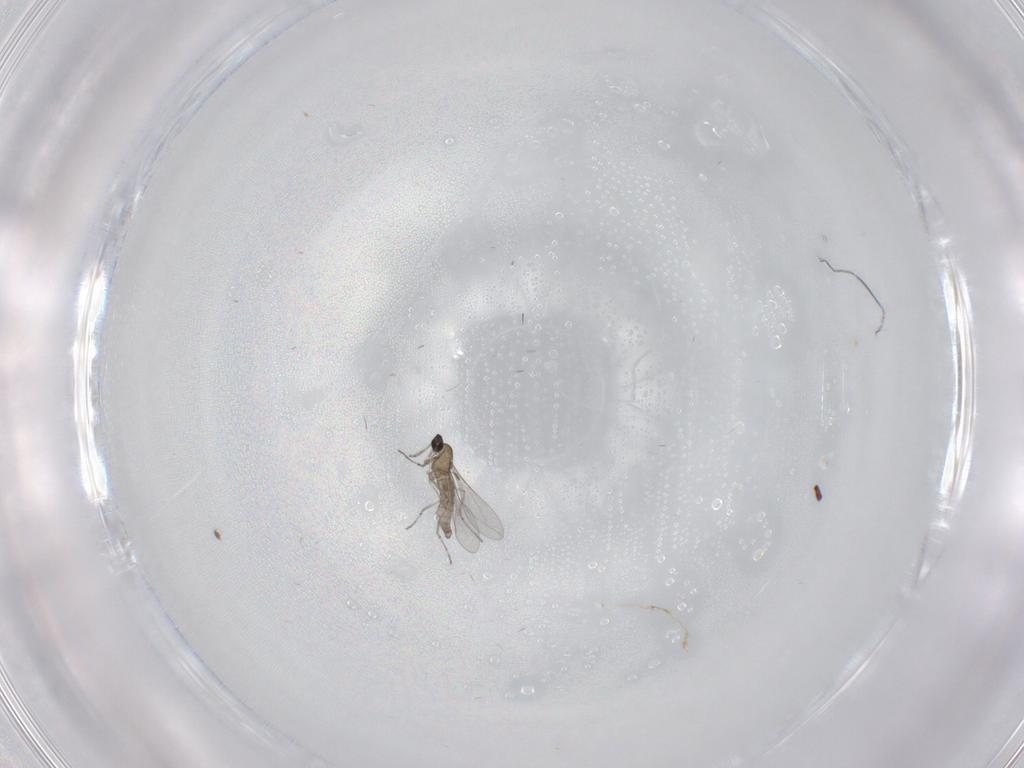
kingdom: Animalia
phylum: Arthropoda
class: Insecta
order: Diptera
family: Cecidomyiidae
